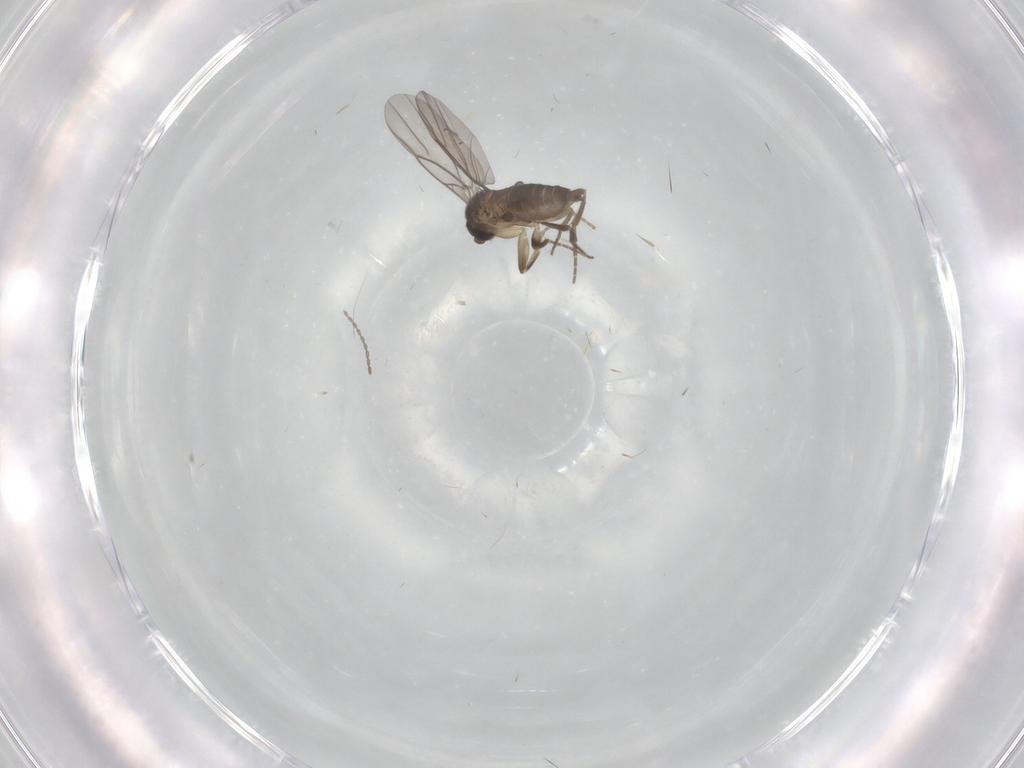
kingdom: Animalia
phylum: Arthropoda
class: Insecta
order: Diptera
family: Cecidomyiidae
